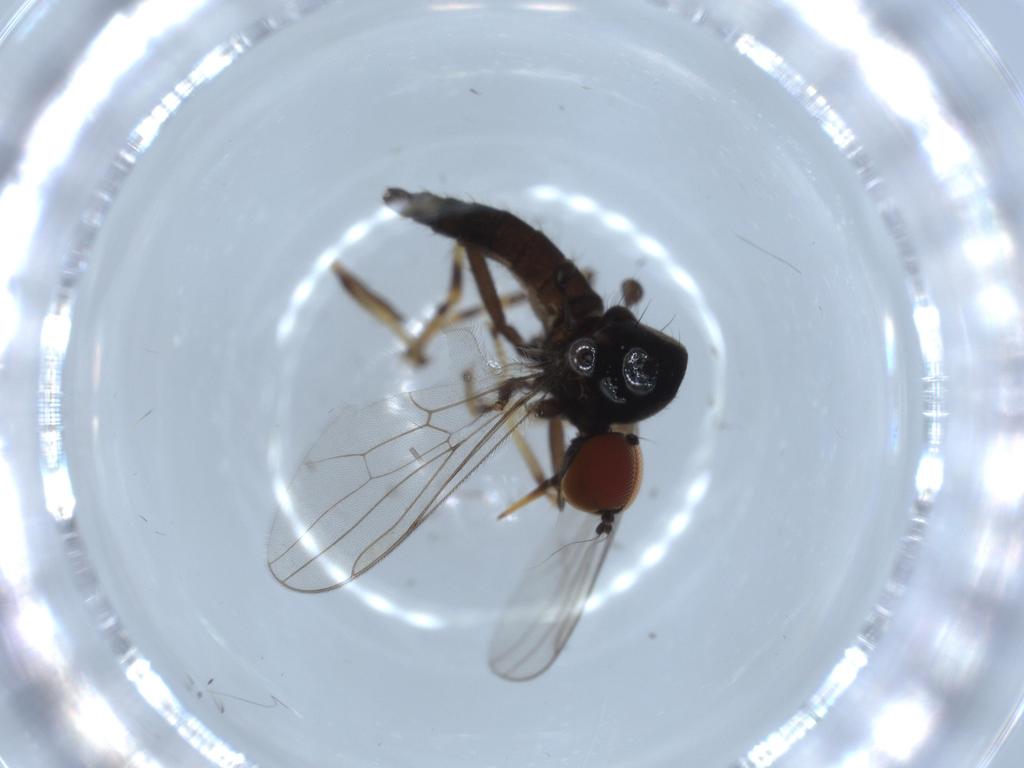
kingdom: Animalia
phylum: Arthropoda
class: Insecta
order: Diptera
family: Hybotidae
